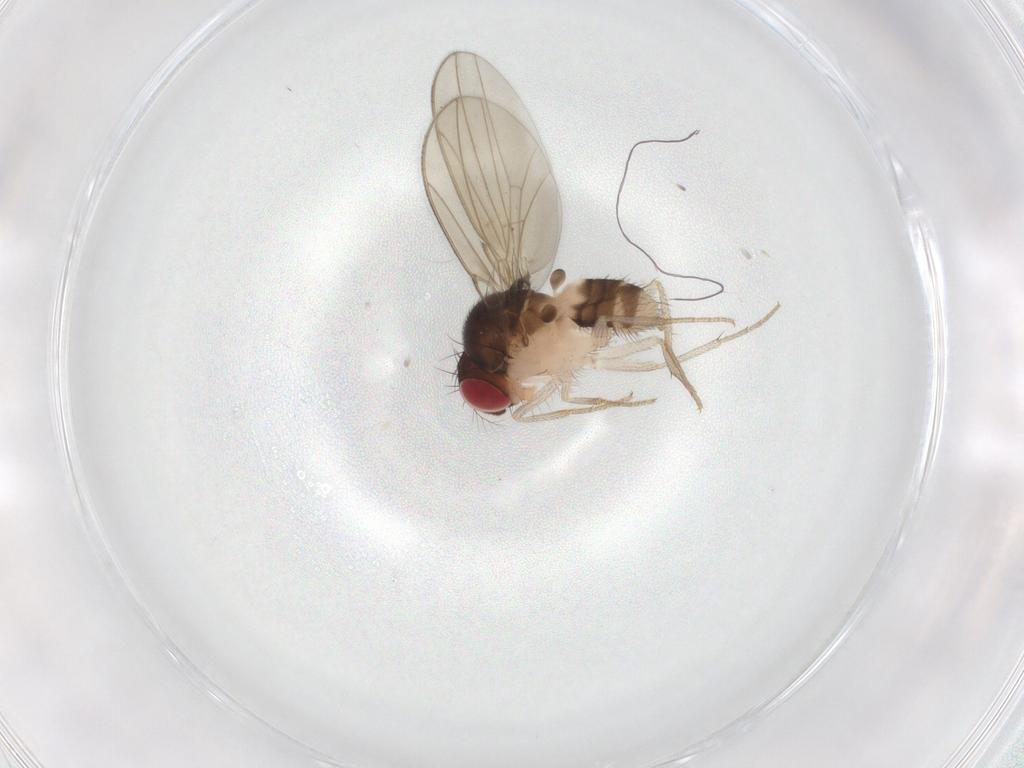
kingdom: Animalia
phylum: Arthropoda
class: Insecta
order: Diptera
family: Drosophilidae
